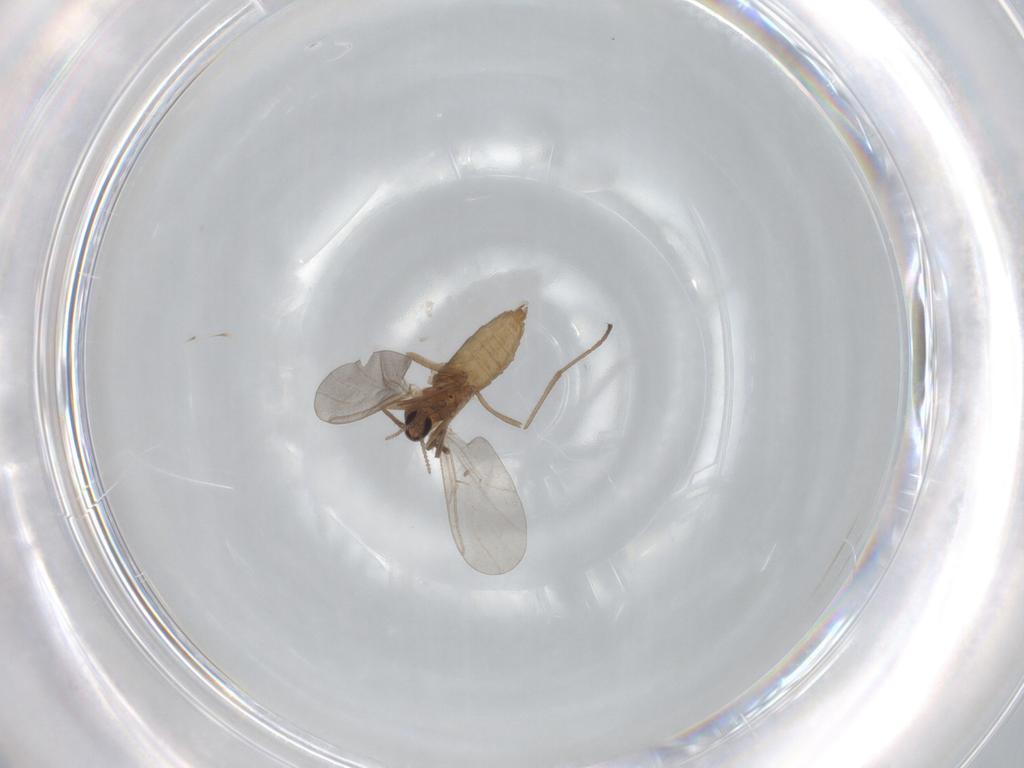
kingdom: Animalia
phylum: Arthropoda
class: Insecta
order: Diptera
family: Cecidomyiidae
